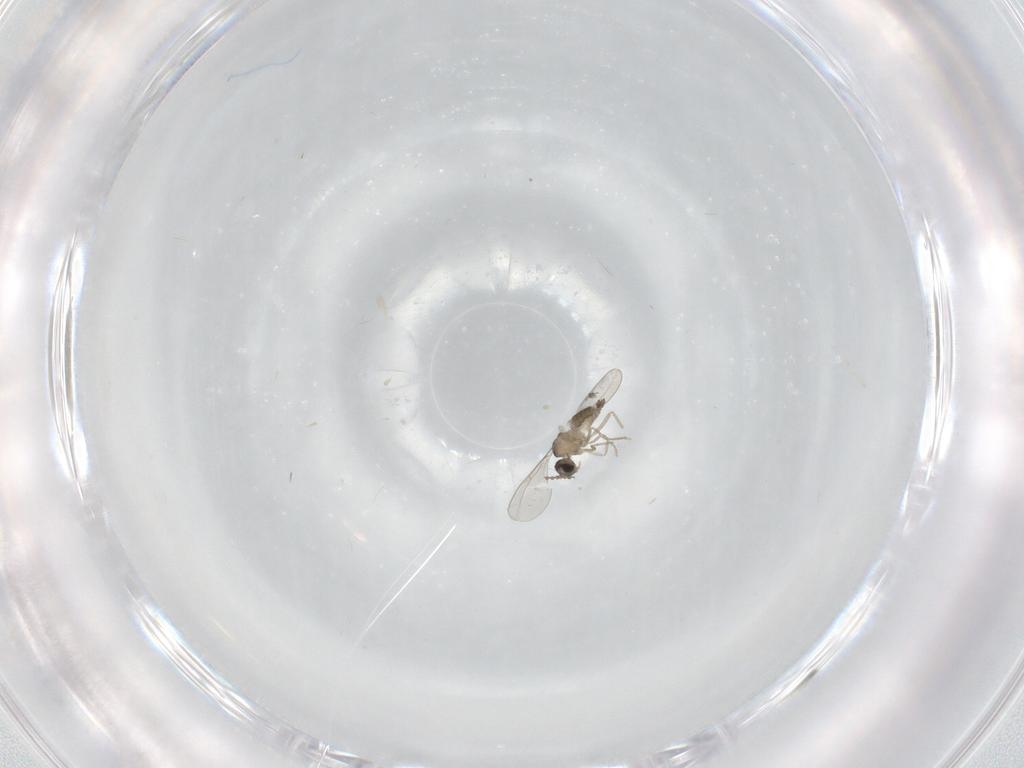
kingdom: Animalia
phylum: Arthropoda
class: Insecta
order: Diptera
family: Cecidomyiidae
